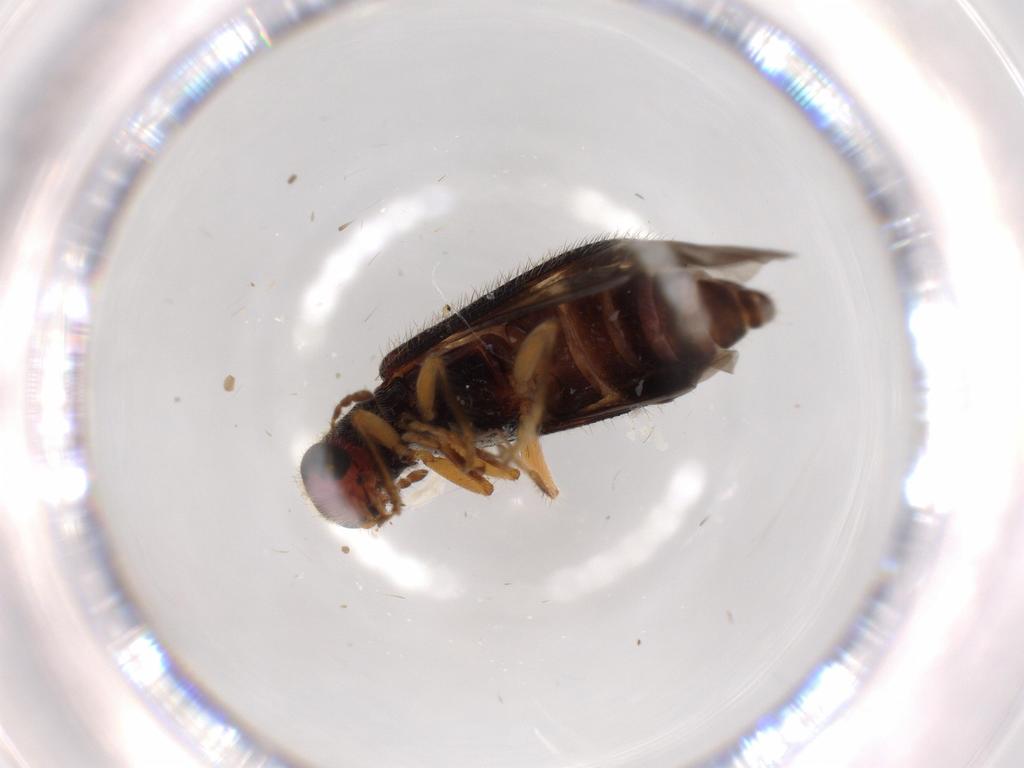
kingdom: Animalia
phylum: Arthropoda
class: Insecta
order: Coleoptera
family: Cleridae
